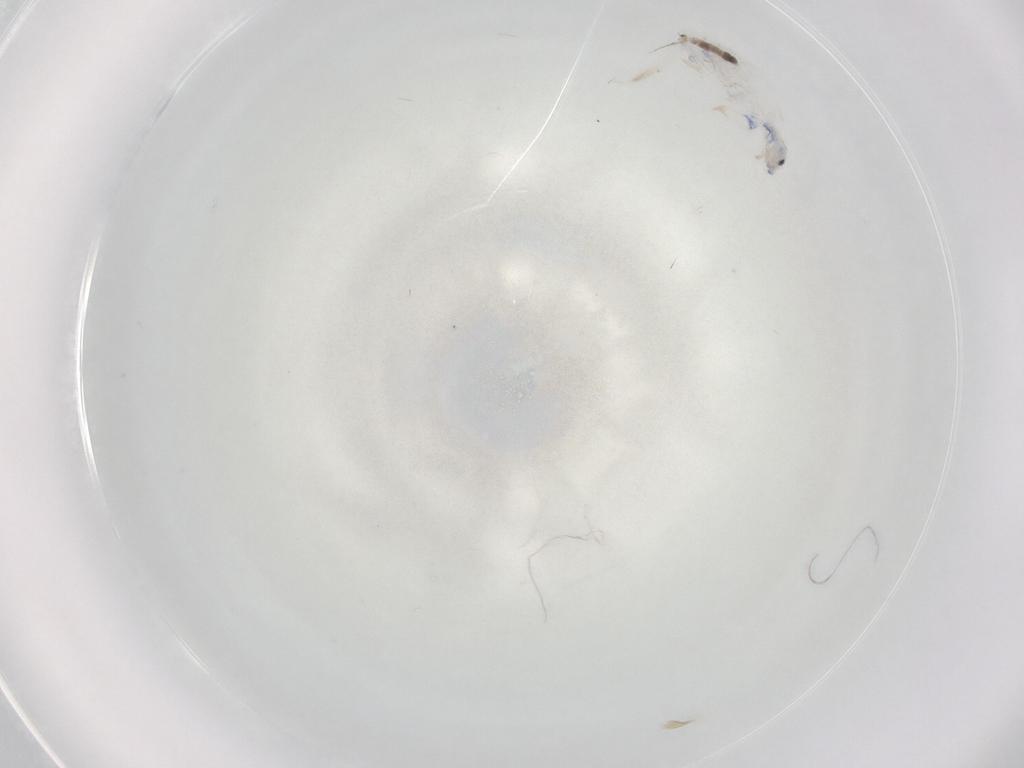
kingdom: Animalia
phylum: Arthropoda
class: Collembola
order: Entomobryomorpha
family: Entomobryidae
